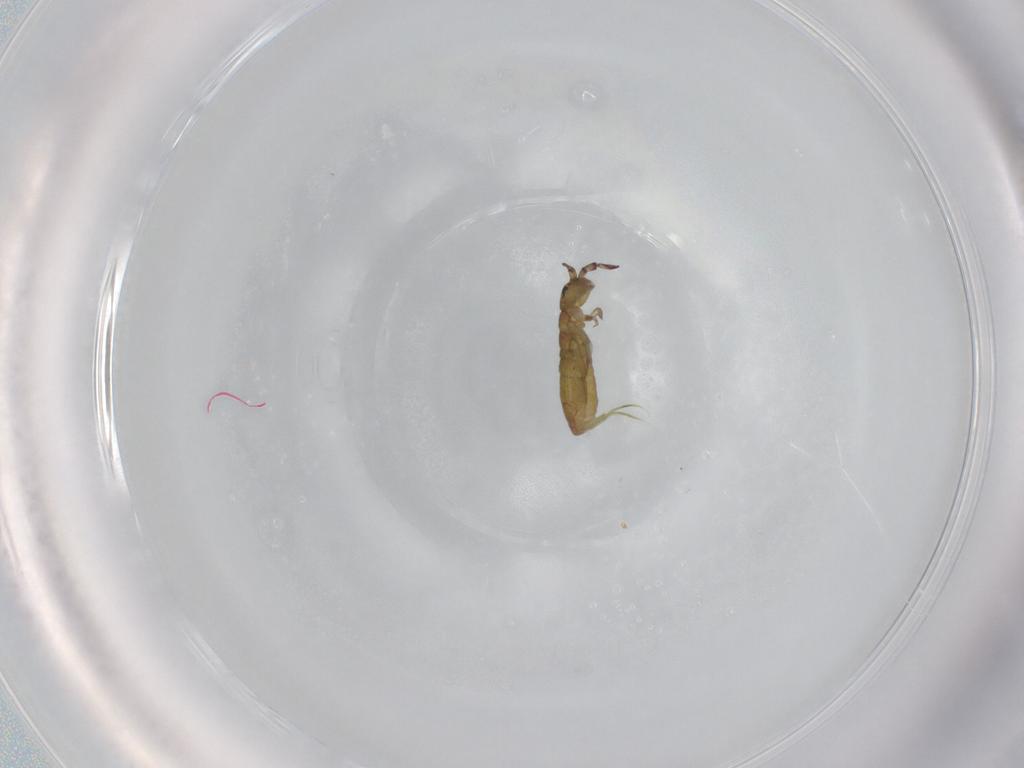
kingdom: Animalia
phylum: Arthropoda
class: Collembola
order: Entomobryomorpha
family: Isotomidae
